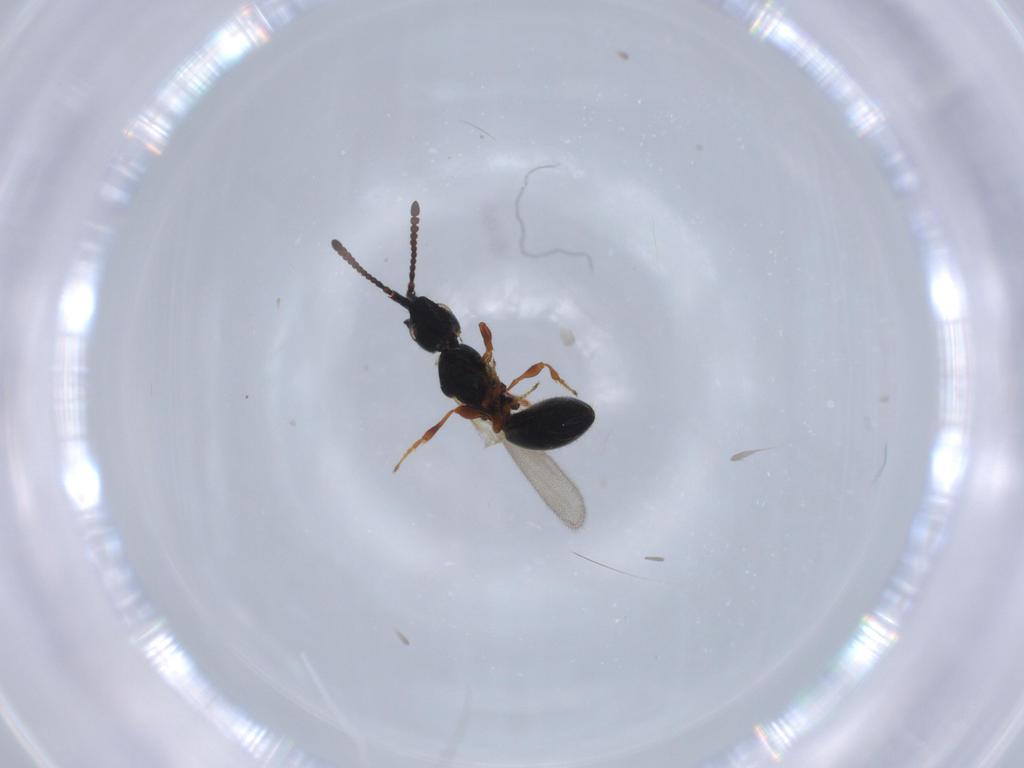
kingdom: Animalia
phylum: Arthropoda
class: Insecta
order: Hymenoptera
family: Scelionidae
